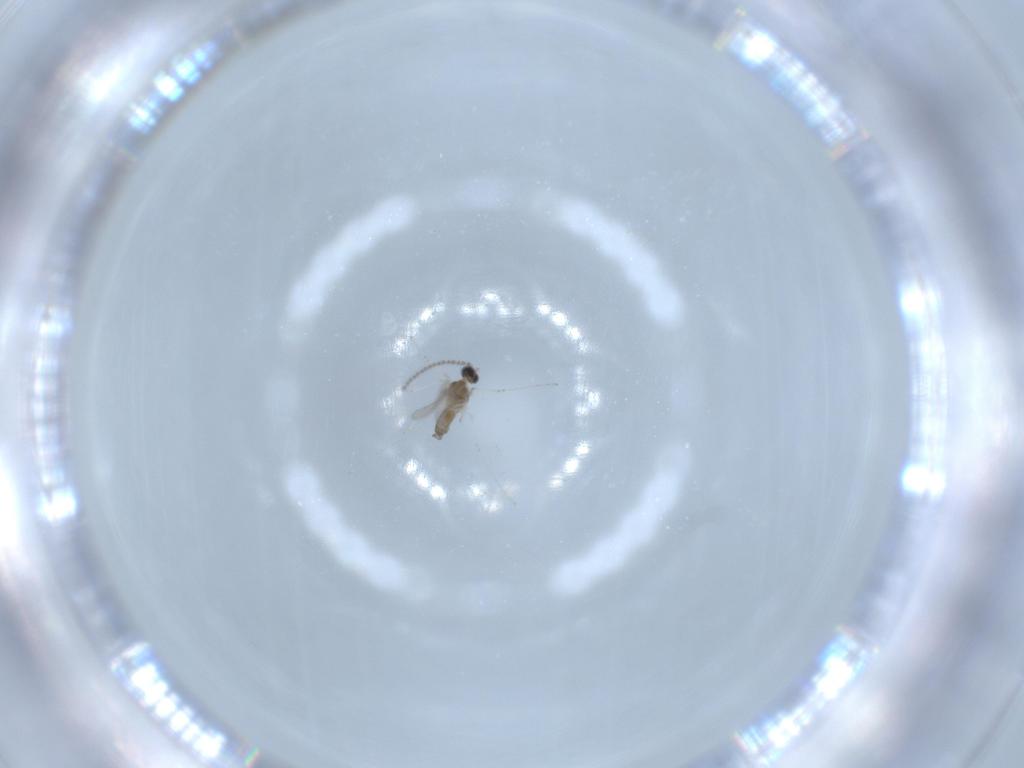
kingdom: Animalia
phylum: Arthropoda
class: Insecta
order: Diptera
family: Cecidomyiidae
